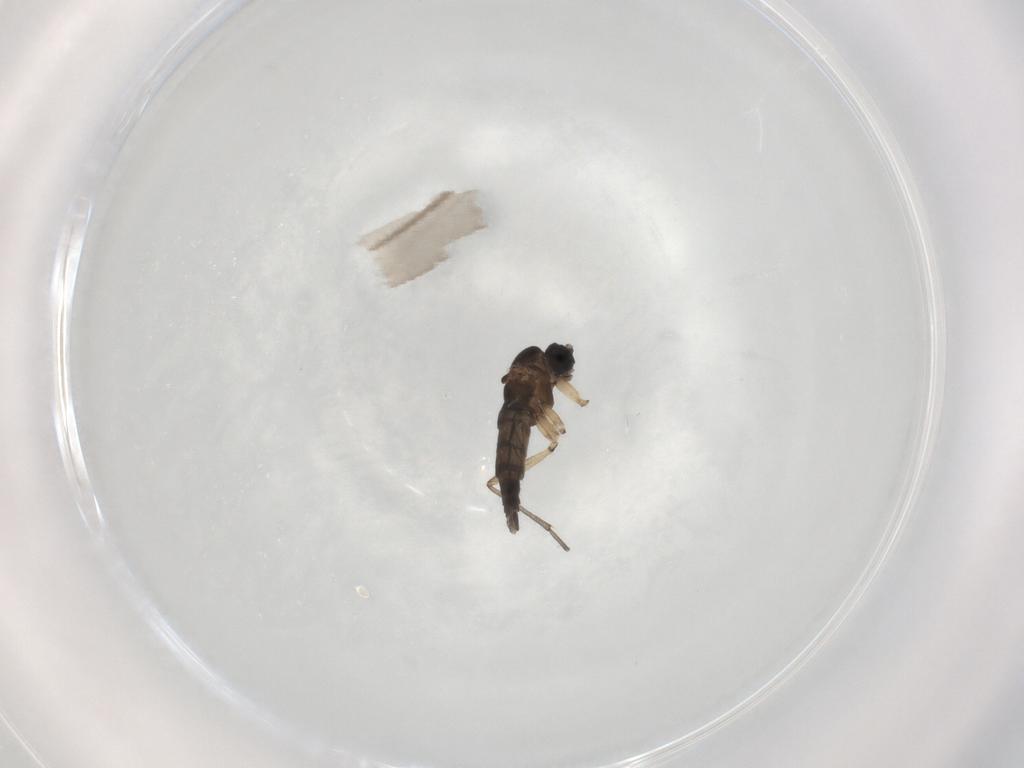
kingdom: Animalia
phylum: Arthropoda
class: Insecta
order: Diptera
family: Sciaridae
